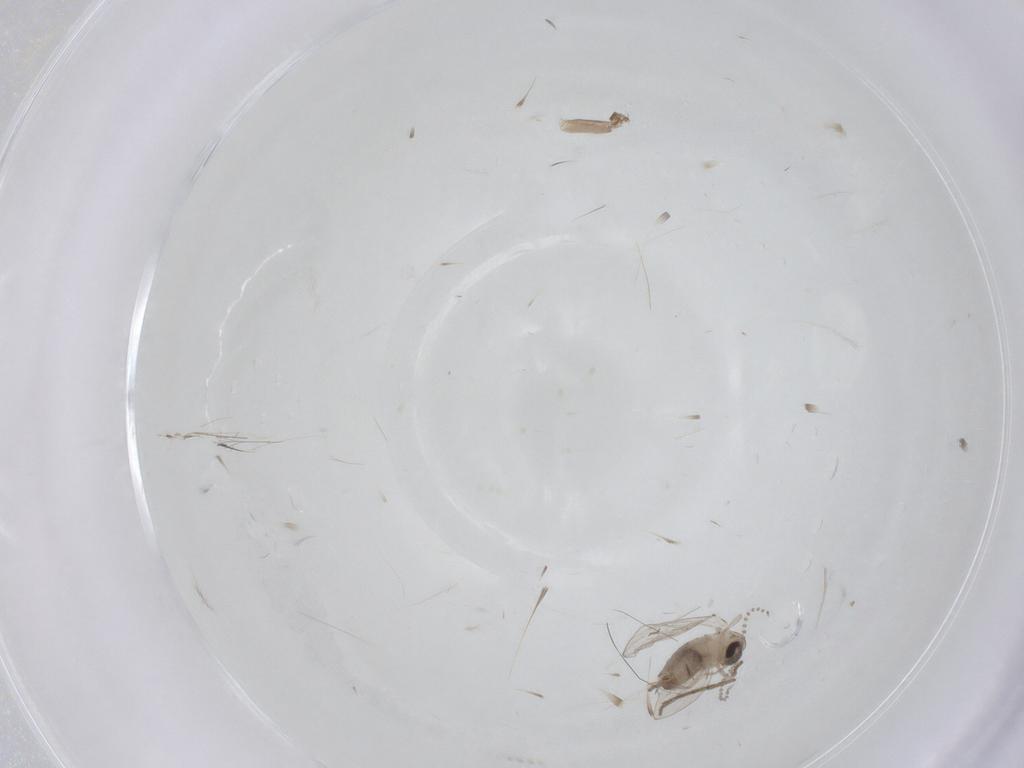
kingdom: Animalia
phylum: Arthropoda
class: Insecta
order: Diptera
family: Psychodidae
